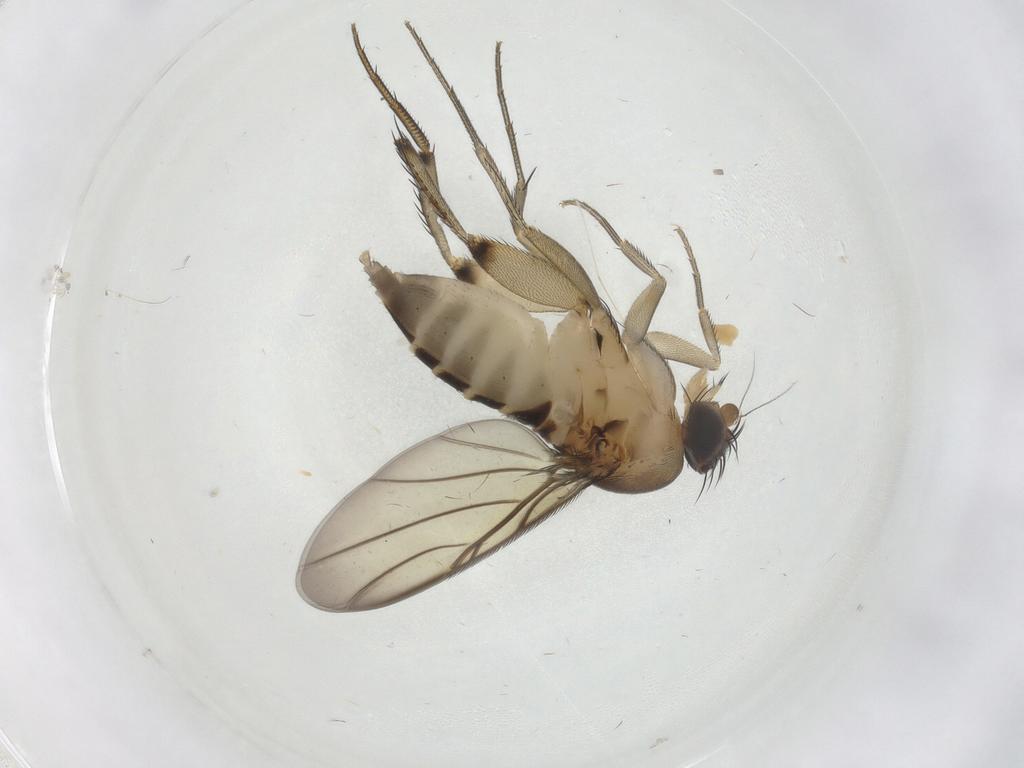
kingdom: Animalia
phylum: Arthropoda
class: Insecta
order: Diptera
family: Phoridae
